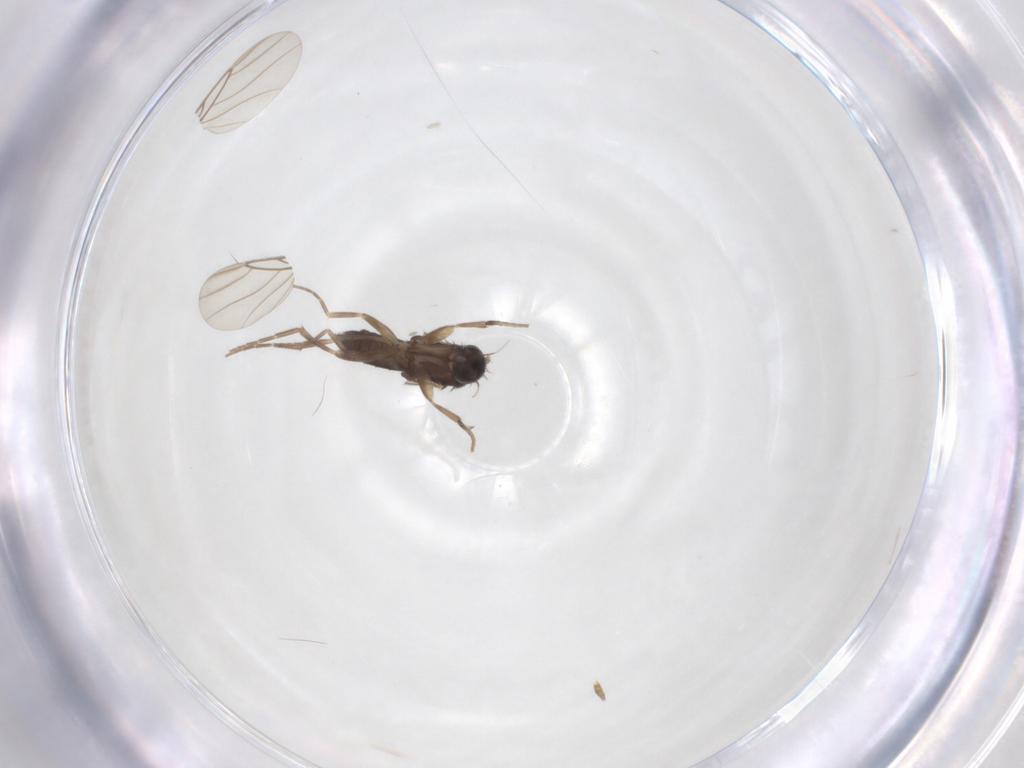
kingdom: Animalia
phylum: Arthropoda
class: Insecta
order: Diptera
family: Phoridae
